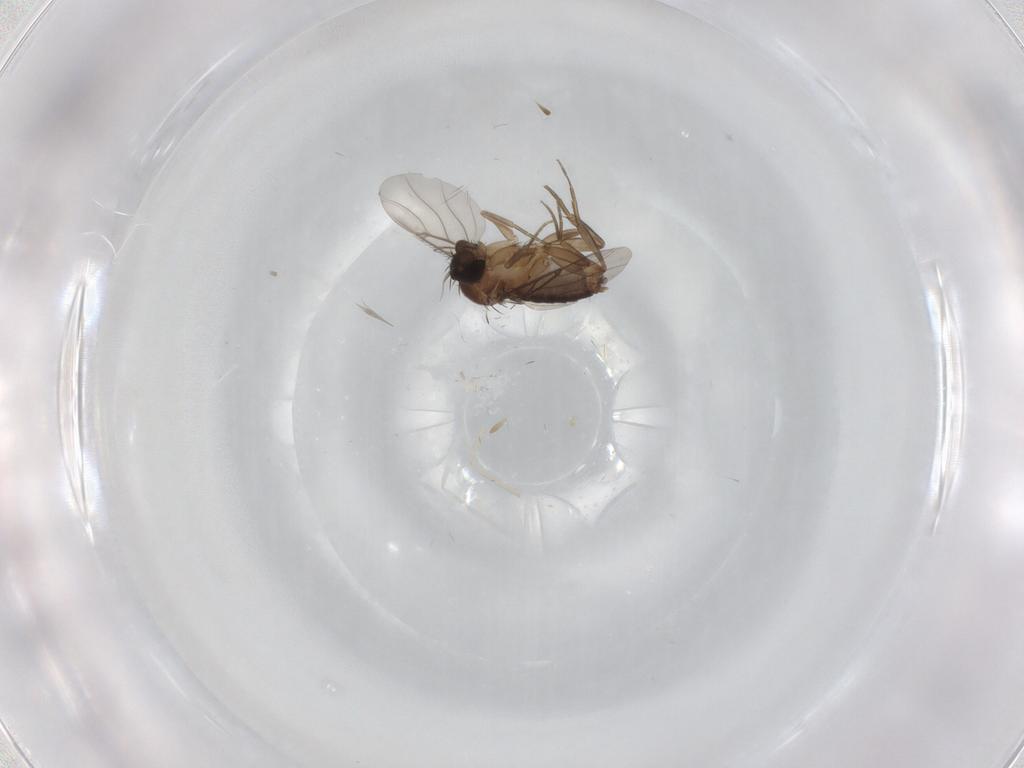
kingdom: Animalia
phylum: Arthropoda
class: Insecta
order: Diptera
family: Phoridae
